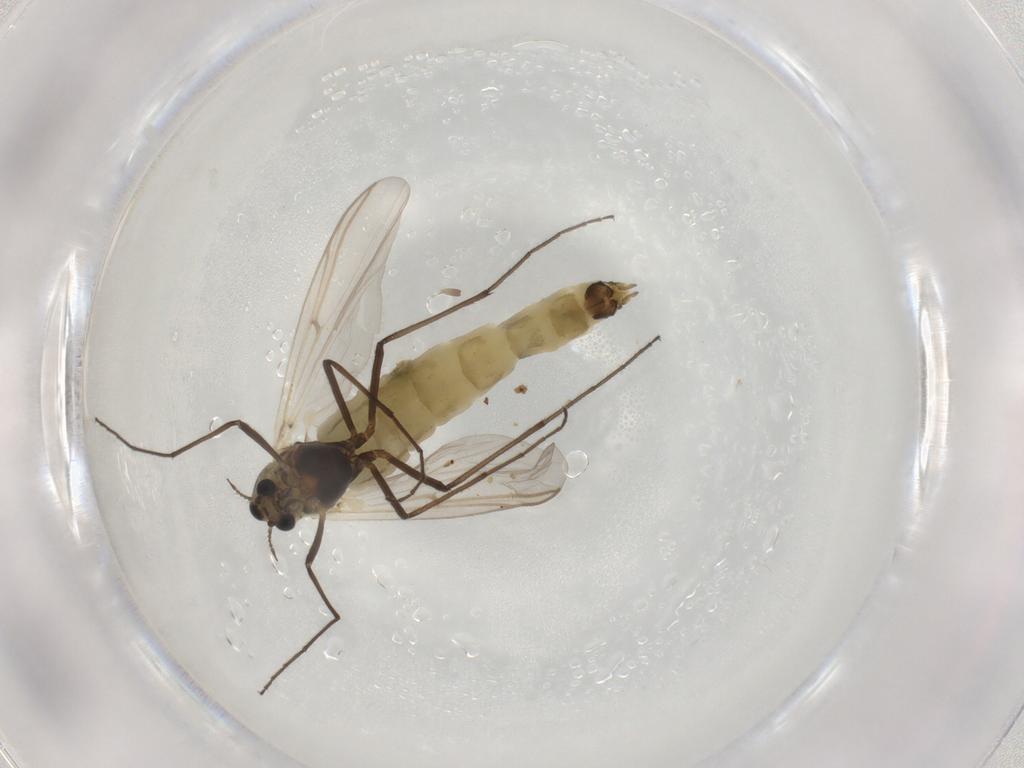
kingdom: Animalia
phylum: Arthropoda
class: Insecta
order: Diptera
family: Chironomidae
